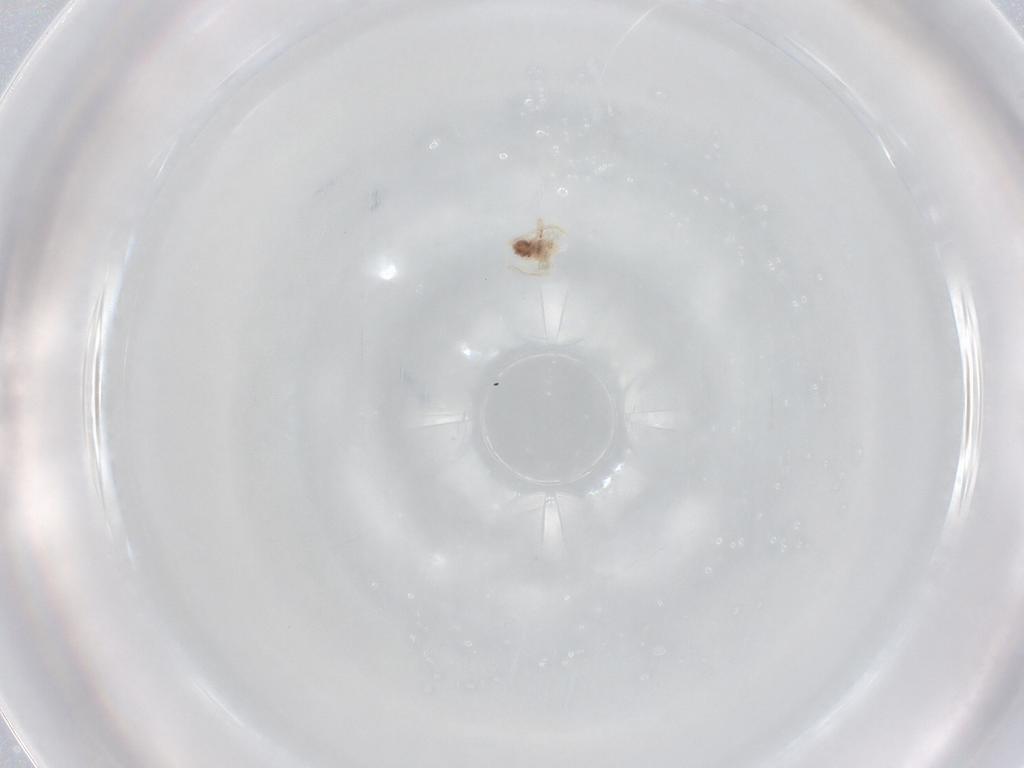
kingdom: Animalia
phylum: Arthropoda
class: Arachnida
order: Trombidiformes
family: Anystidae
